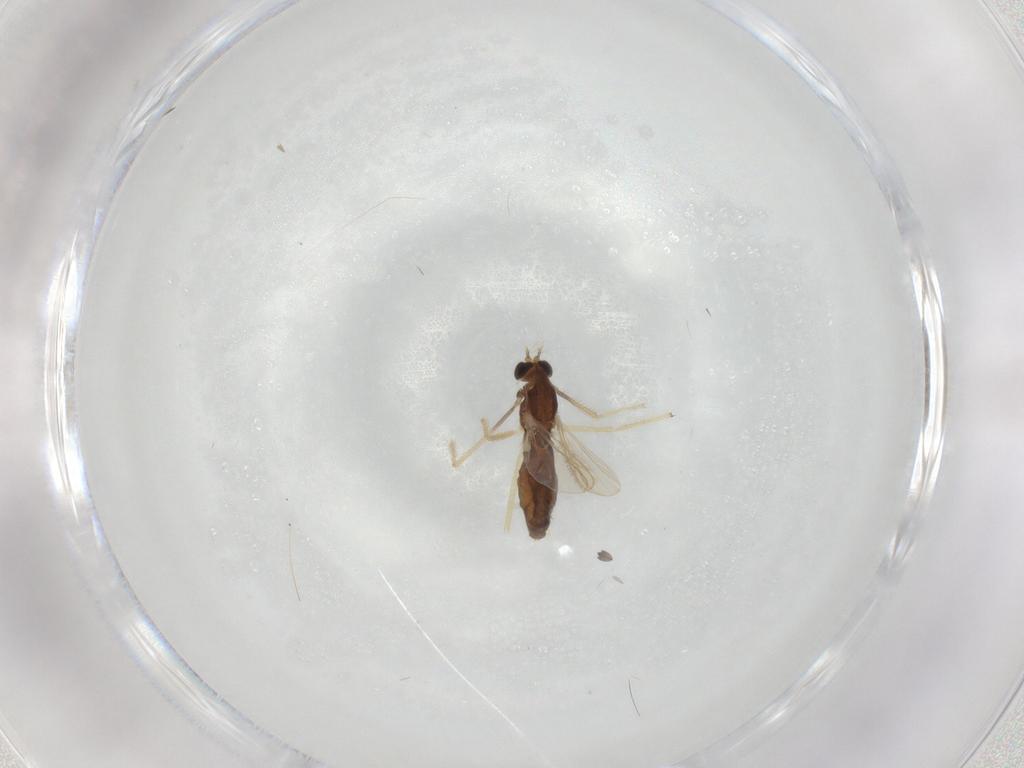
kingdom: Animalia
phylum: Arthropoda
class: Insecta
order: Diptera
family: Chironomidae
